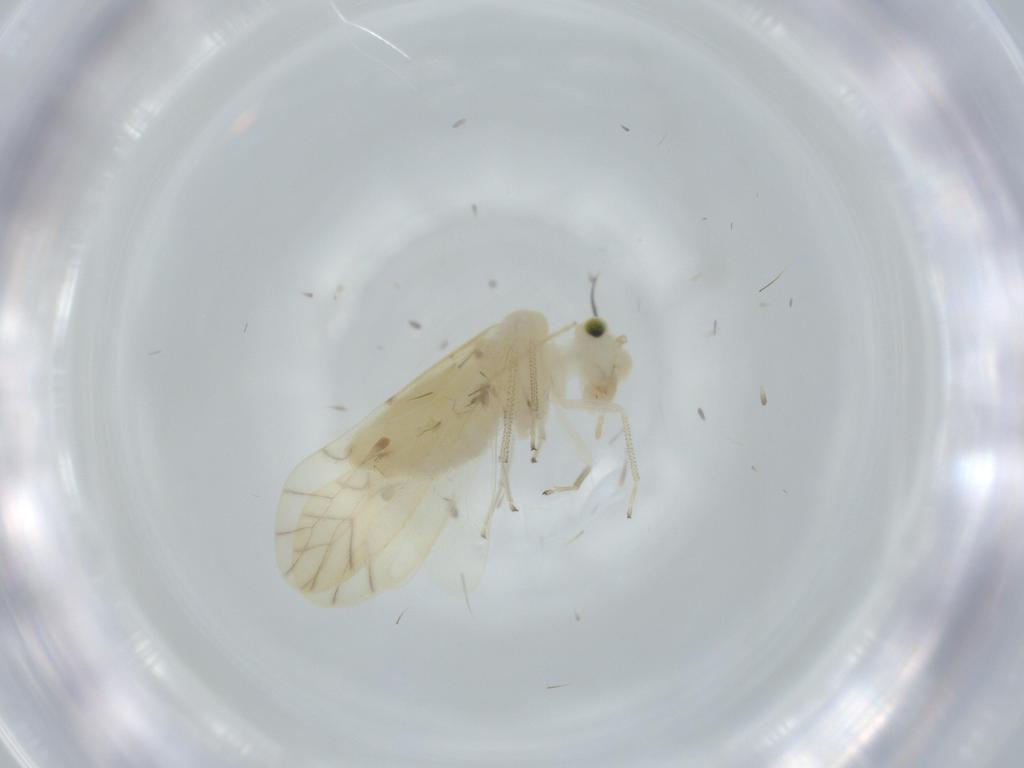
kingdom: Animalia
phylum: Arthropoda
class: Insecta
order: Psocodea
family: Caeciliusidae
